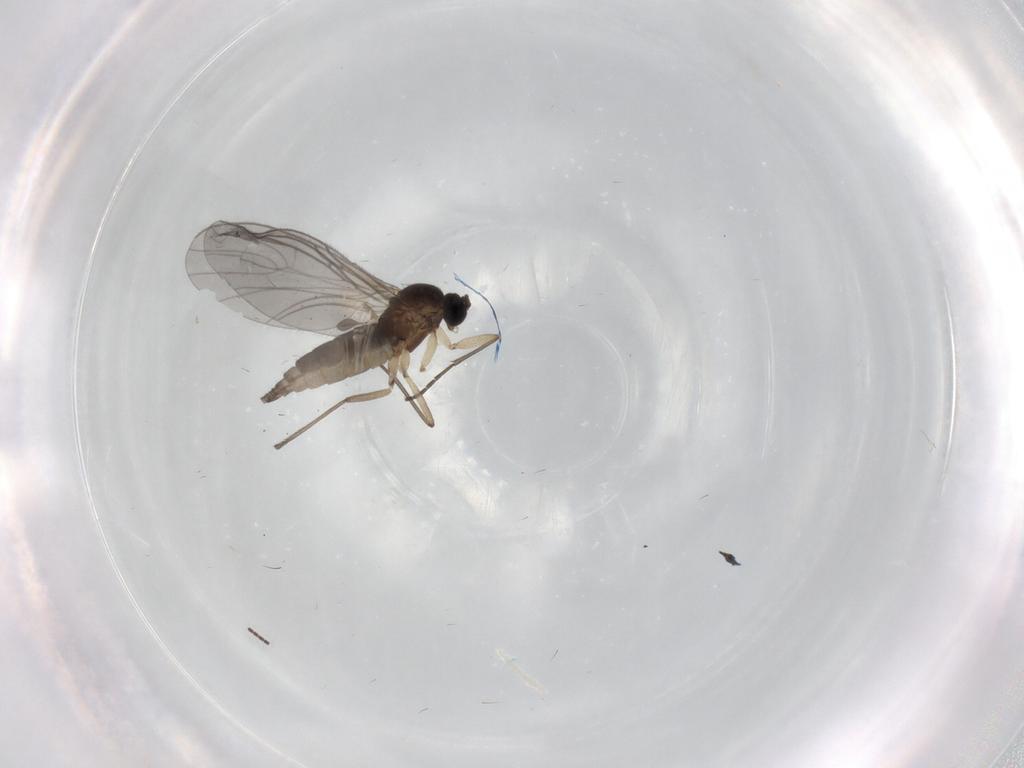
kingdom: Animalia
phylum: Arthropoda
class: Insecta
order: Diptera
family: Sciaridae
